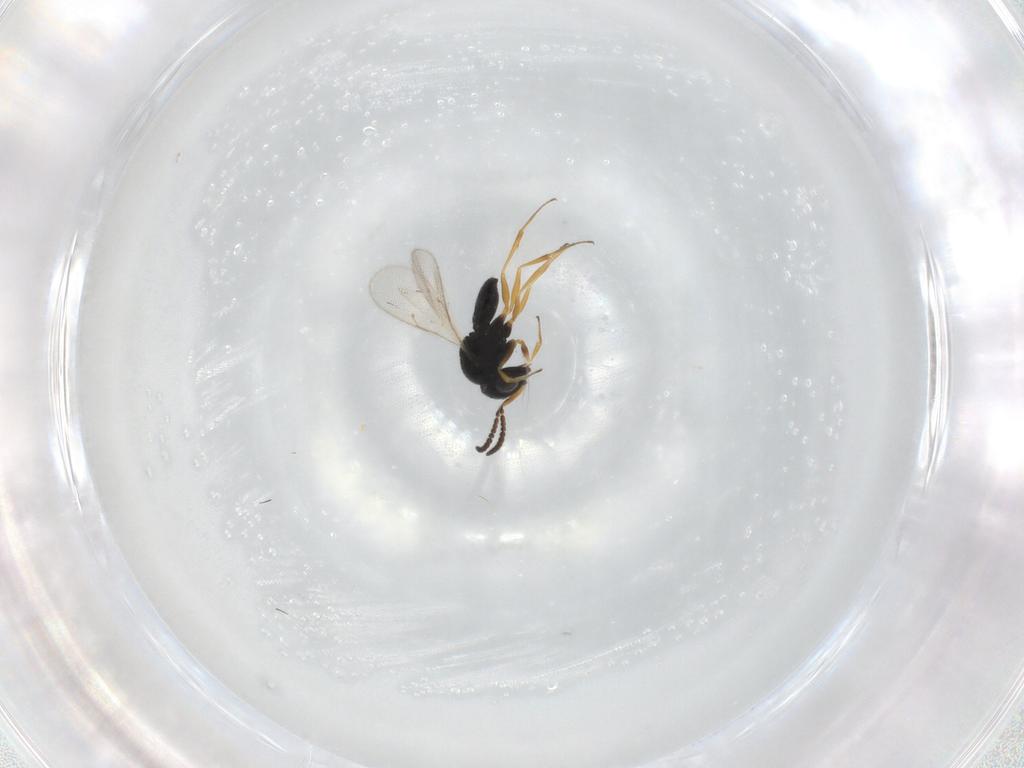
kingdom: Animalia
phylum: Arthropoda
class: Insecta
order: Hymenoptera
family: Scelionidae
